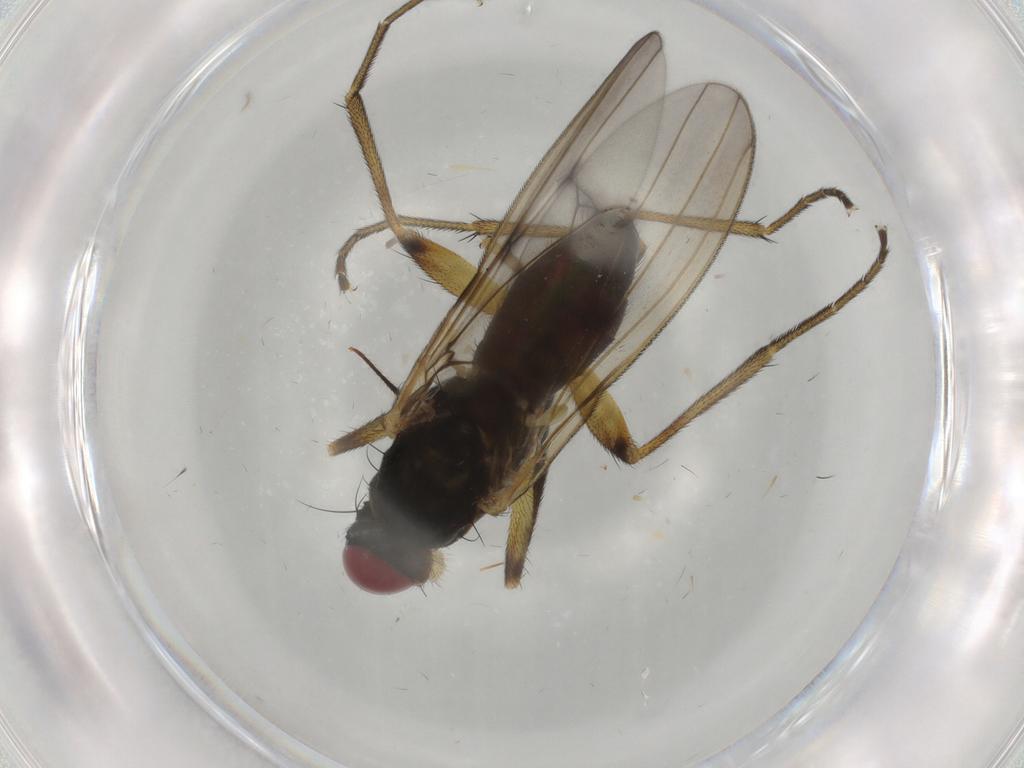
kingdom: Animalia
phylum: Arthropoda
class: Insecta
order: Diptera
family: Sciomyzidae
